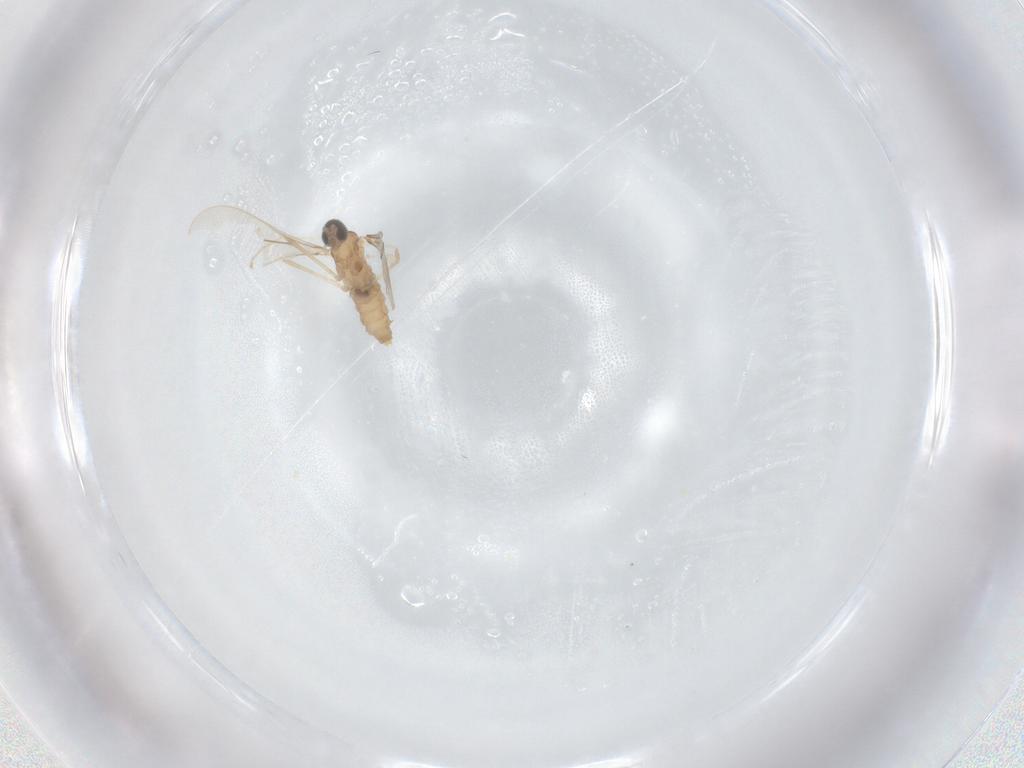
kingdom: Animalia
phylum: Arthropoda
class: Insecta
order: Diptera
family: Cecidomyiidae
